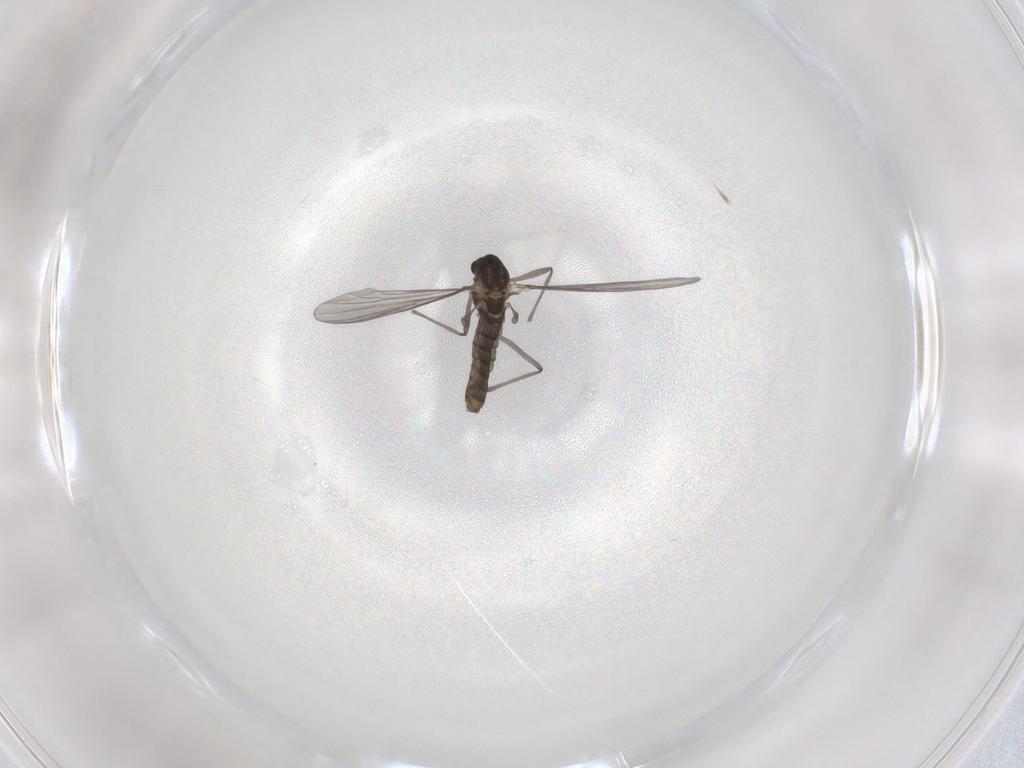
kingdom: Animalia
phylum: Arthropoda
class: Insecta
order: Diptera
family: Chironomidae
